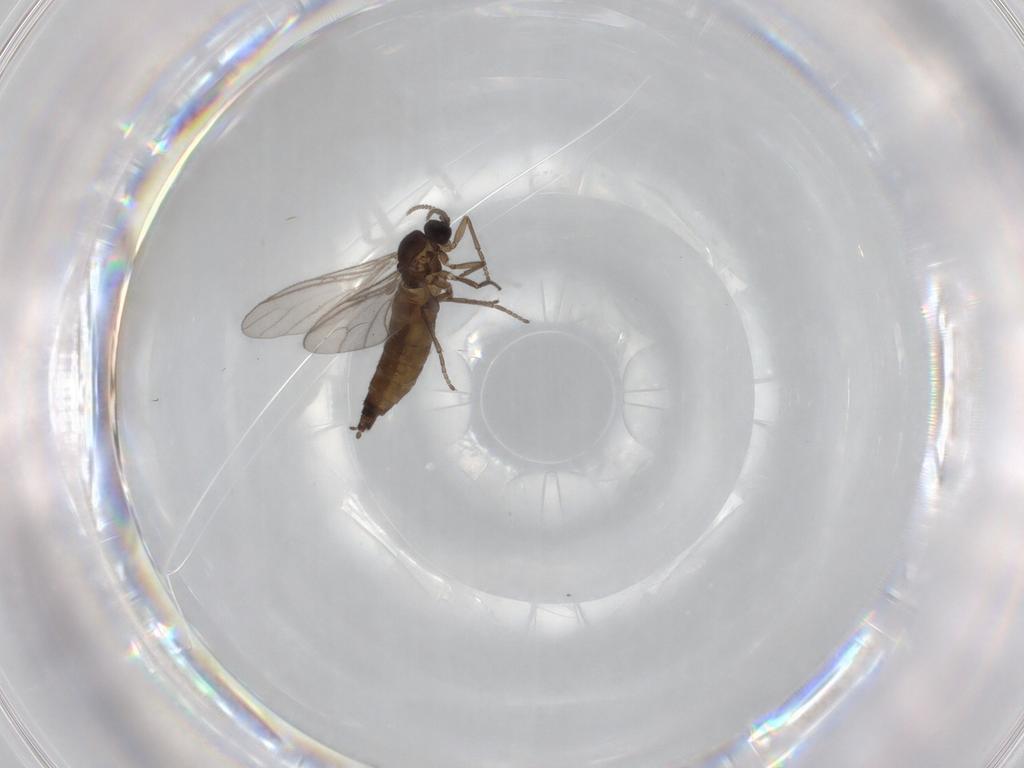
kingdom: Animalia
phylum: Arthropoda
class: Insecta
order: Diptera
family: Sciaridae
